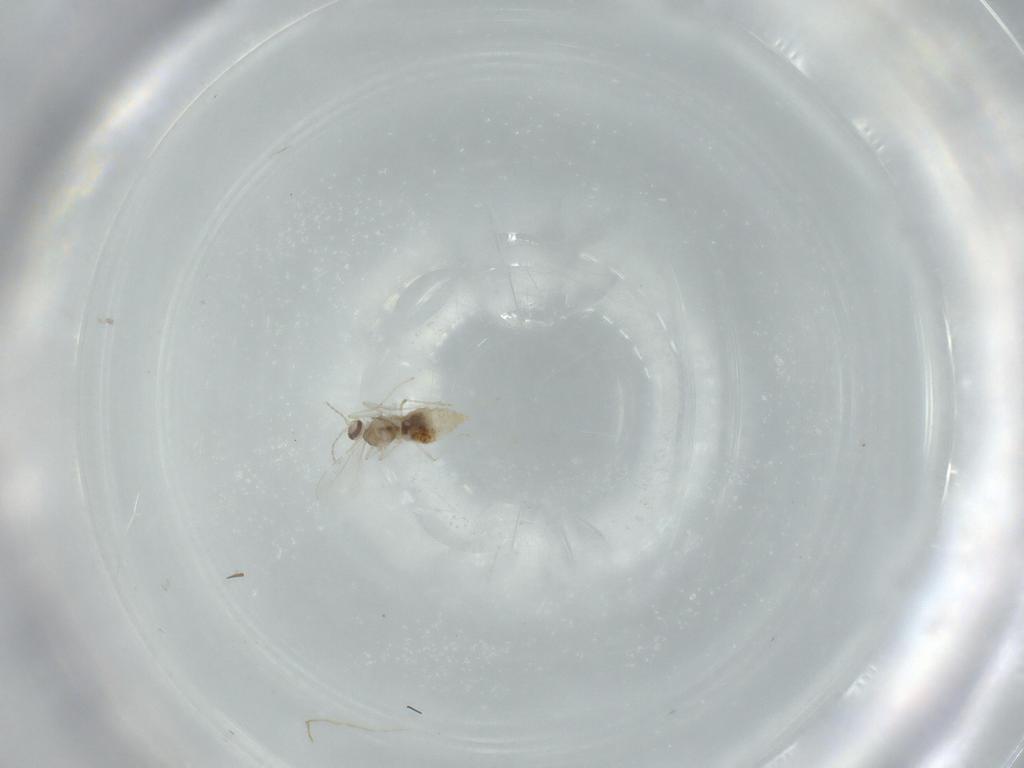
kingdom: Animalia
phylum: Arthropoda
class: Insecta
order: Diptera
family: Cecidomyiidae
